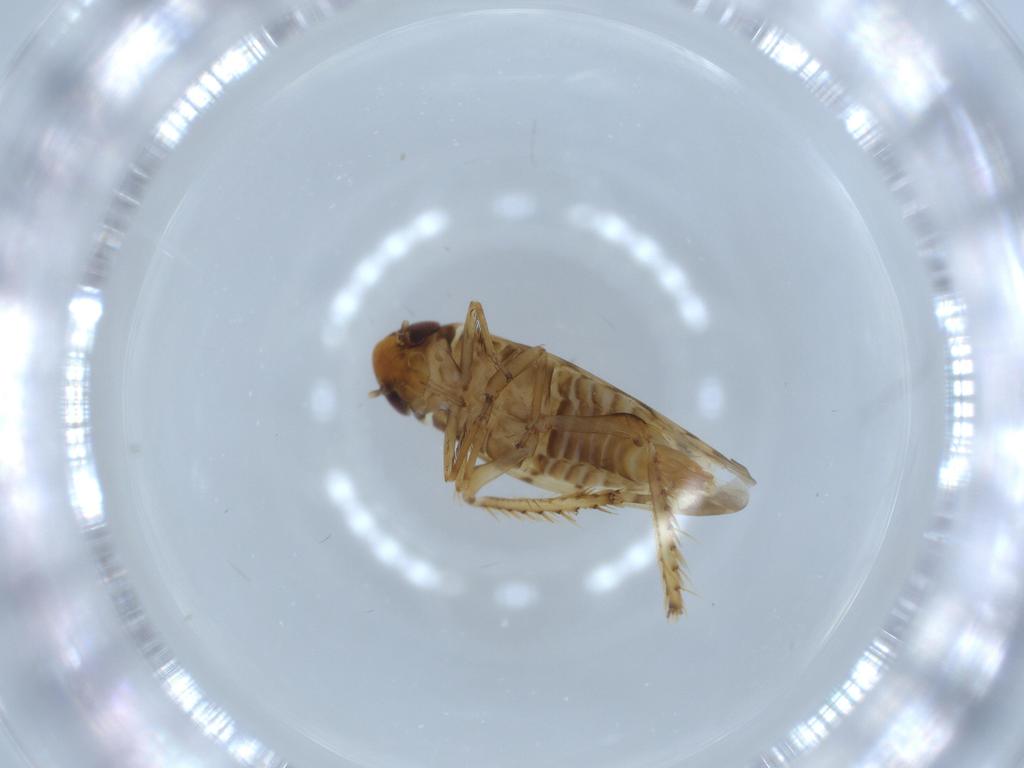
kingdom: Animalia
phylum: Arthropoda
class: Insecta
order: Hemiptera
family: Cicadellidae
